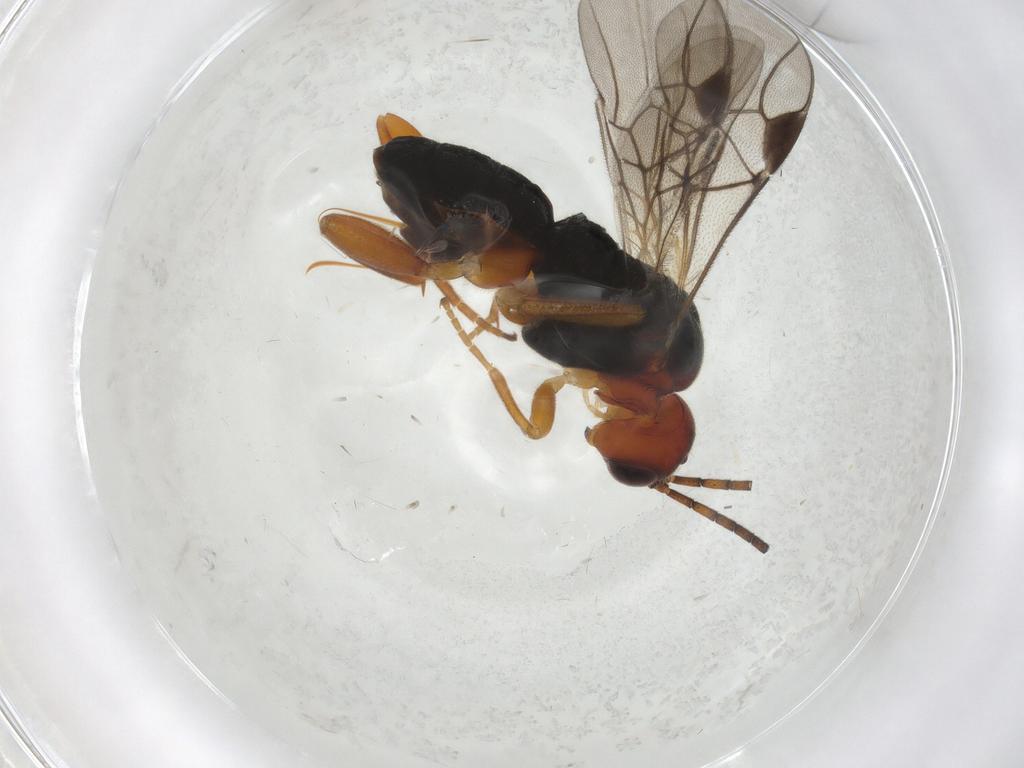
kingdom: Animalia
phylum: Arthropoda
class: Insecta
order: Hymenoptera
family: Braconidae
